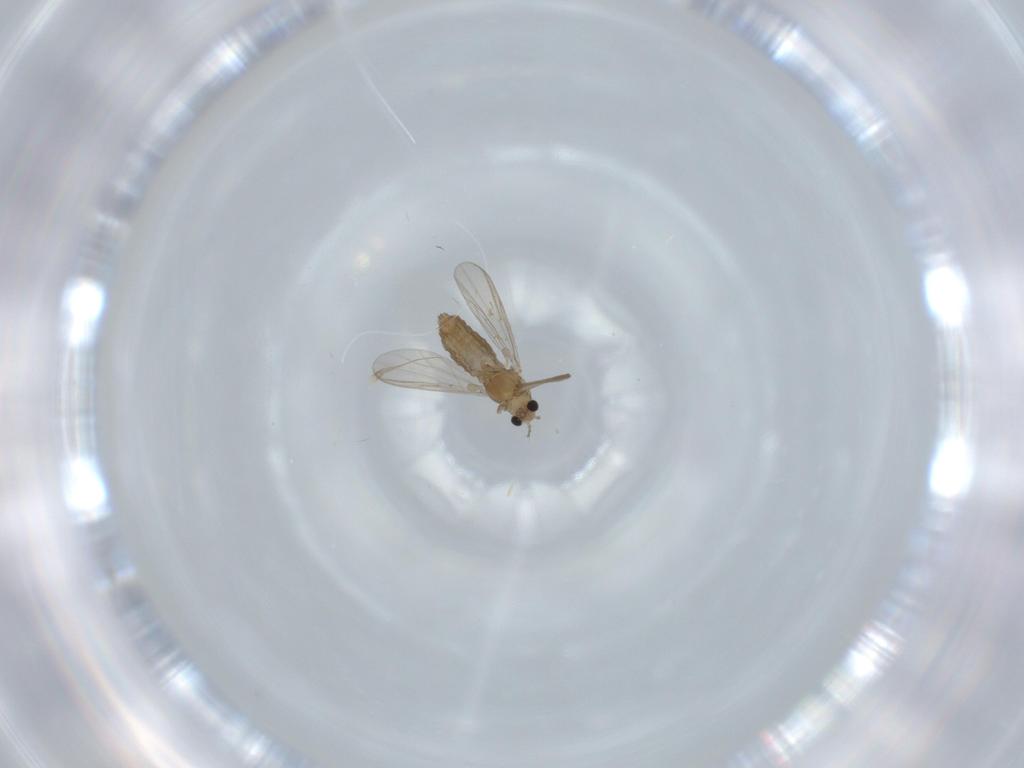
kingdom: Animalia
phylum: Arthropoda
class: Insecta
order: Diptera
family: Chironomidae
